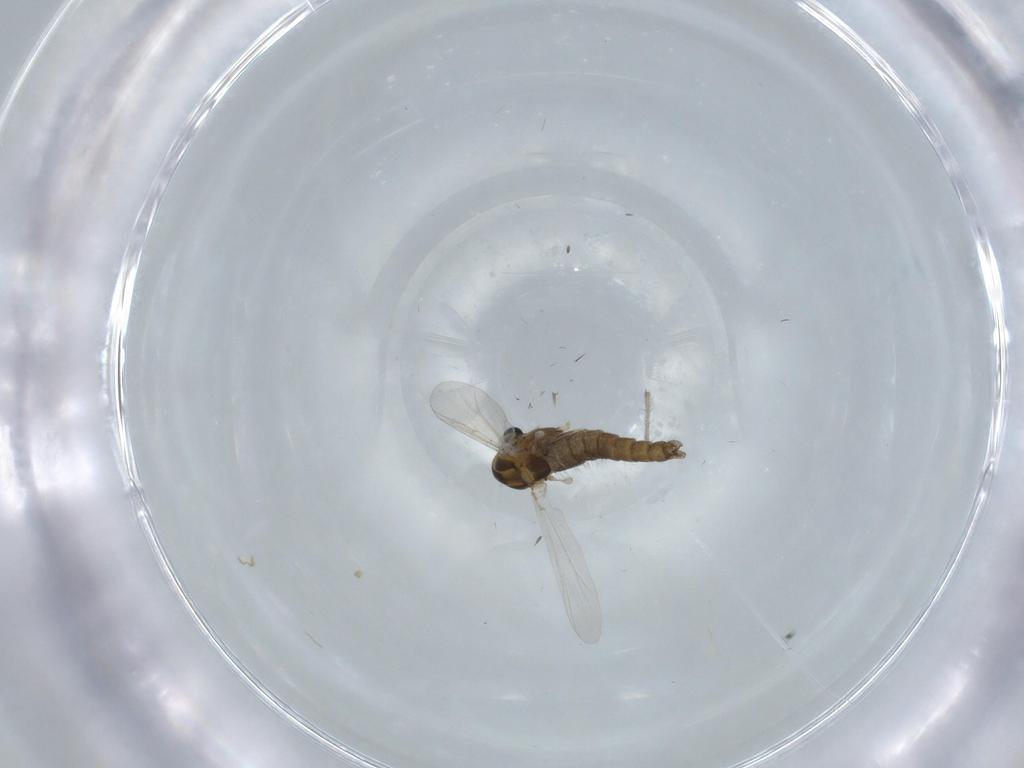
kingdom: Animalia
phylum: Arthropoda
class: Insecta
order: Diptera
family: Chironomidae
